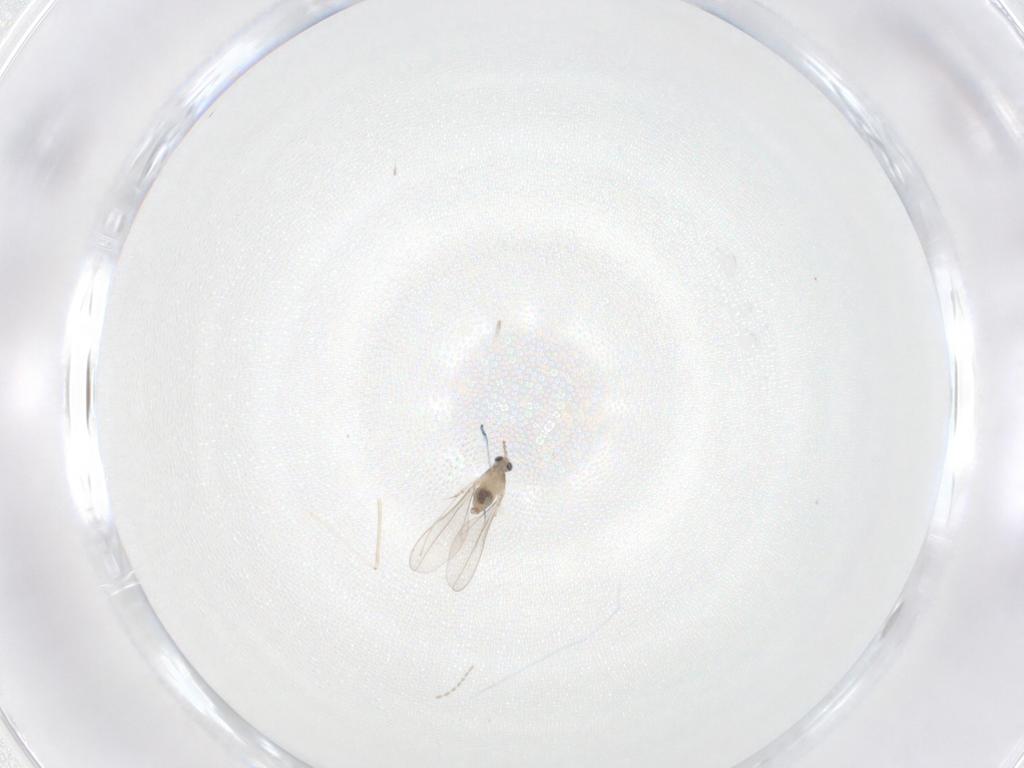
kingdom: Animalia
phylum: Arthropoda
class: Insecta
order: Diptera
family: Cecidomyiidae
